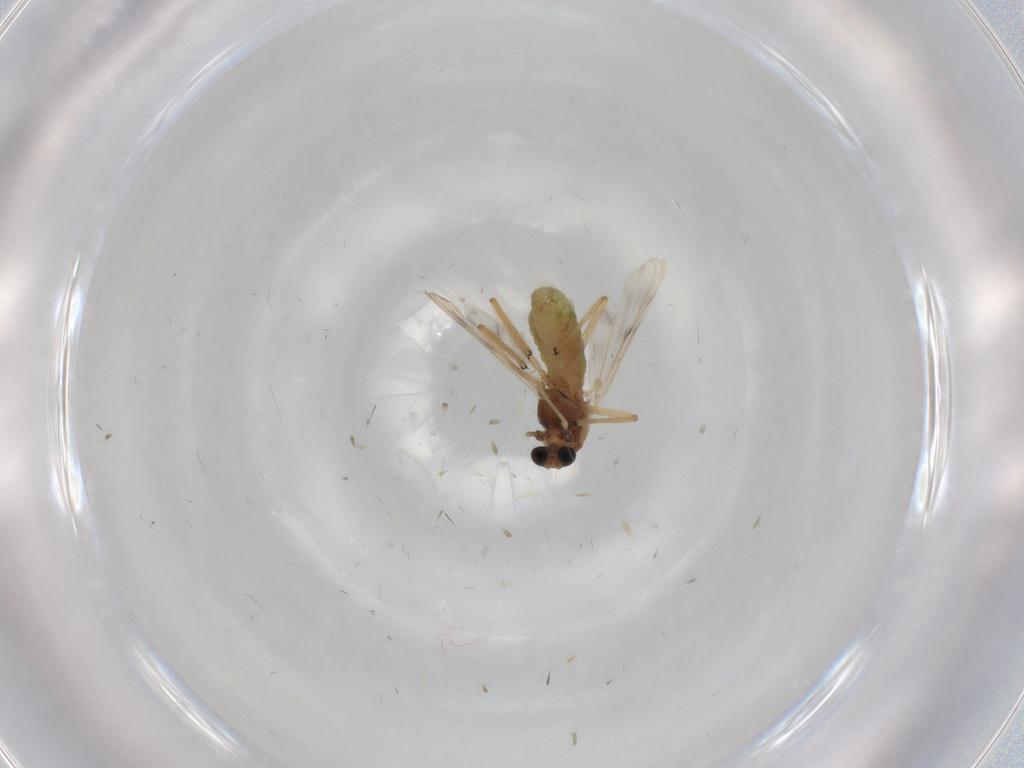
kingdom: Animalia
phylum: Arthropoda
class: Insecta
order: Diptera
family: Chironomidae
